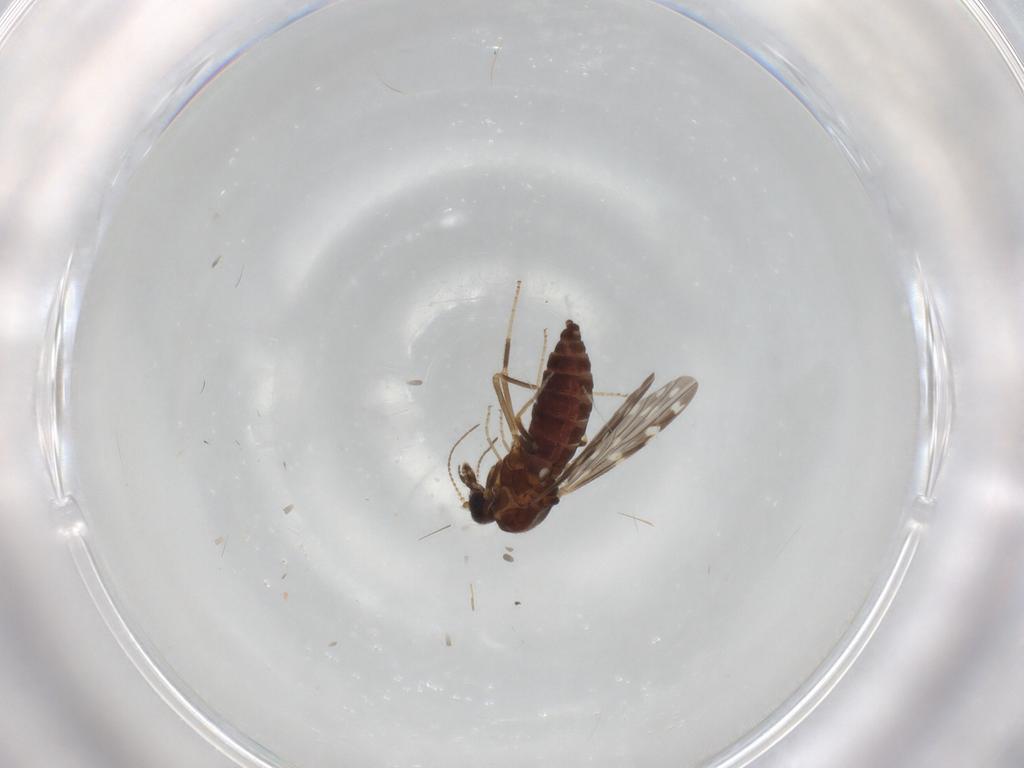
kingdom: Animalia
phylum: Arthropoda
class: Insecta
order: Diptera
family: Ceratopogonidae
